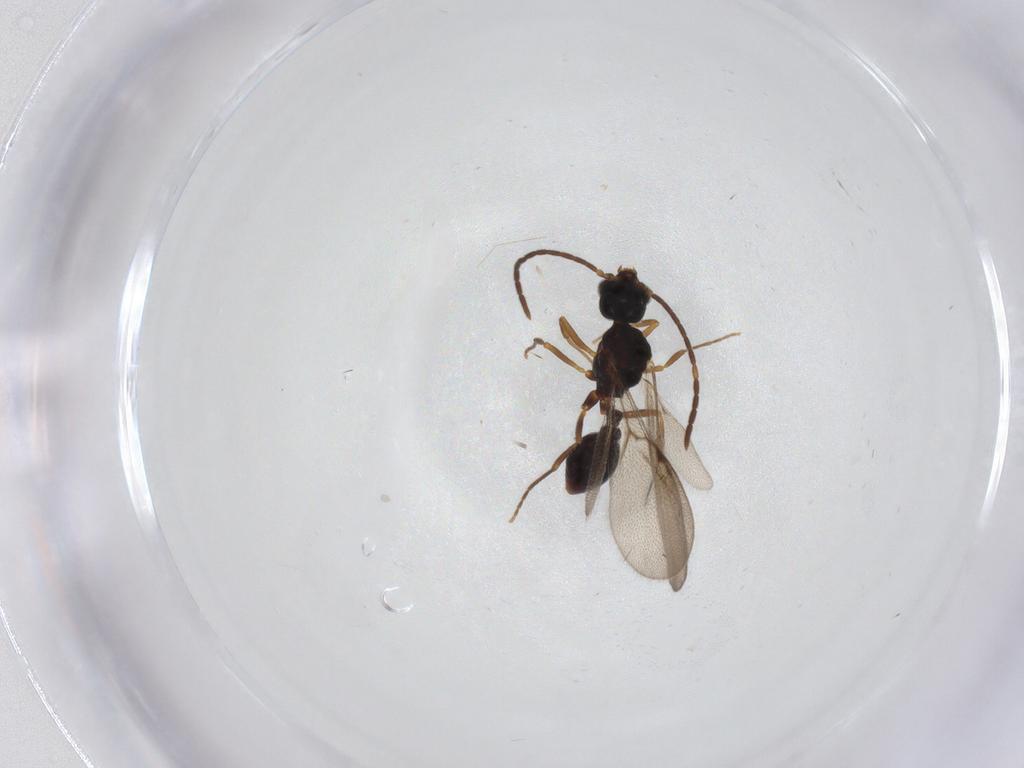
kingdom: Animalia
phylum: Arthropoda
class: Insecta
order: Hymenoptera
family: Formicidae
